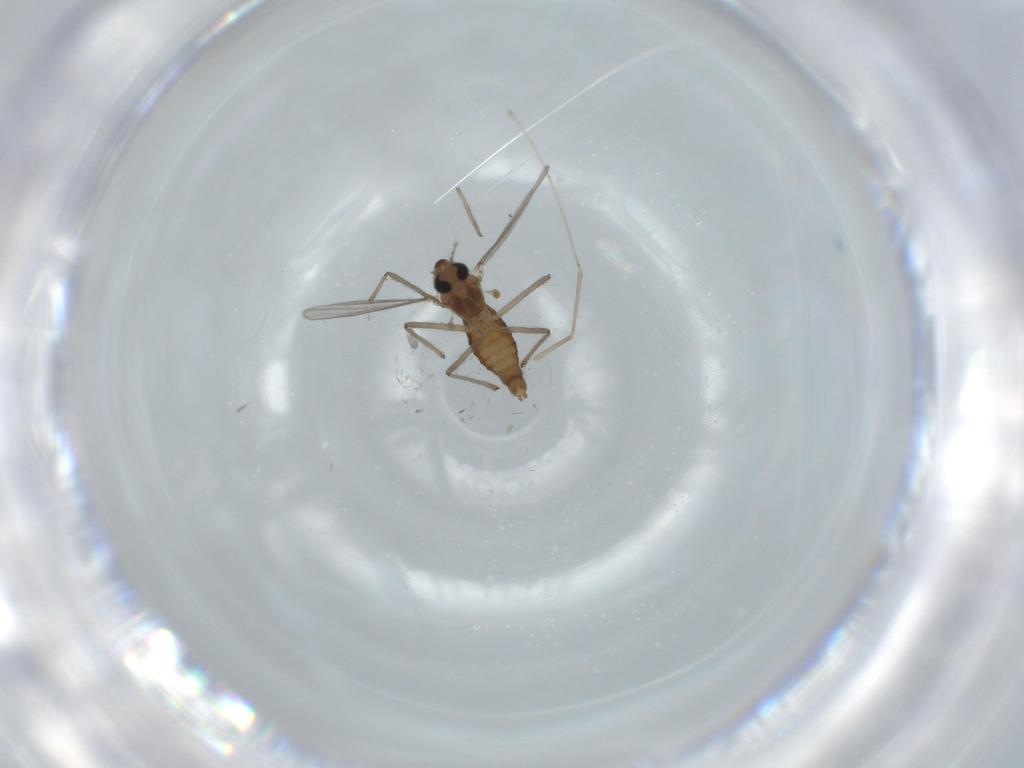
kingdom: Animalia
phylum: Arthropoda
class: Insecta
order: Diptera
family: Chironomidae
